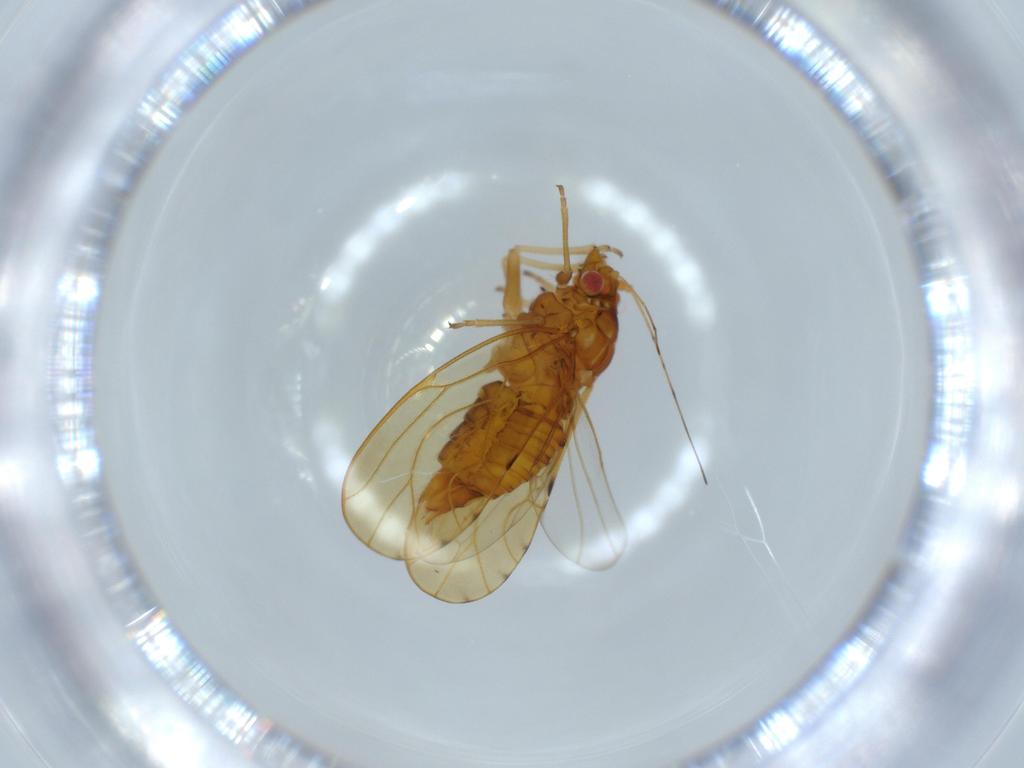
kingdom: Animalia
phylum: Arthropoda
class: Insecta
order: Hemiptera
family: Psylloidea_incertae_sedis
